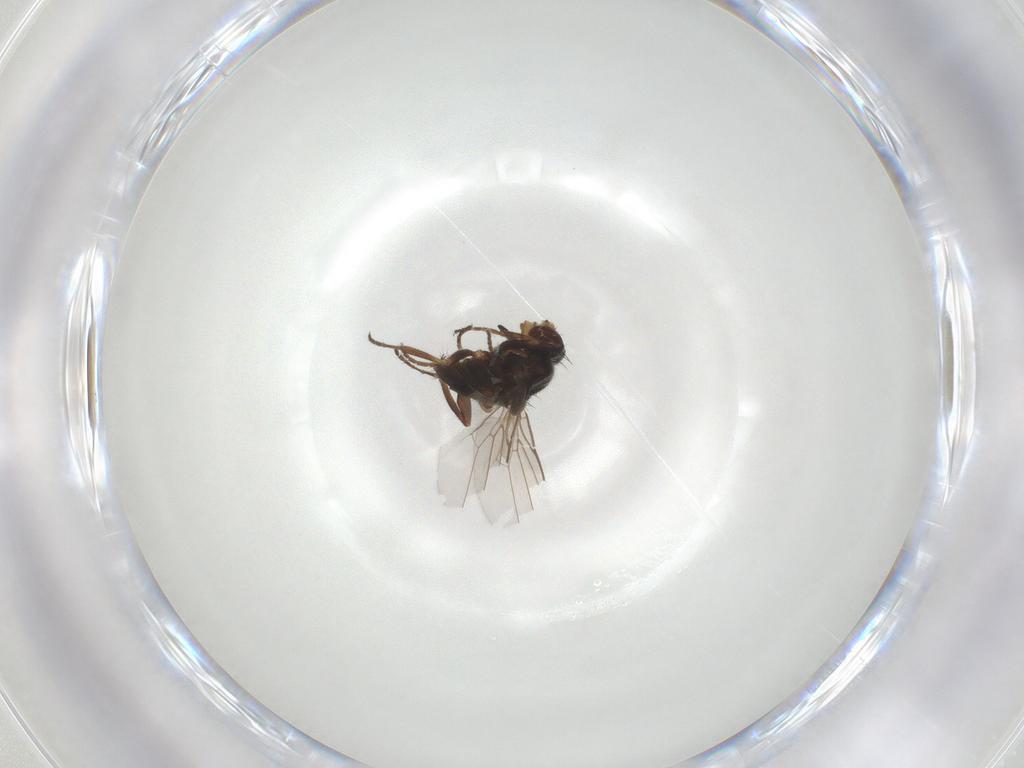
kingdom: Animalia
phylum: Arthropoda
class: Insecta
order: Diptera
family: Chloropidae
